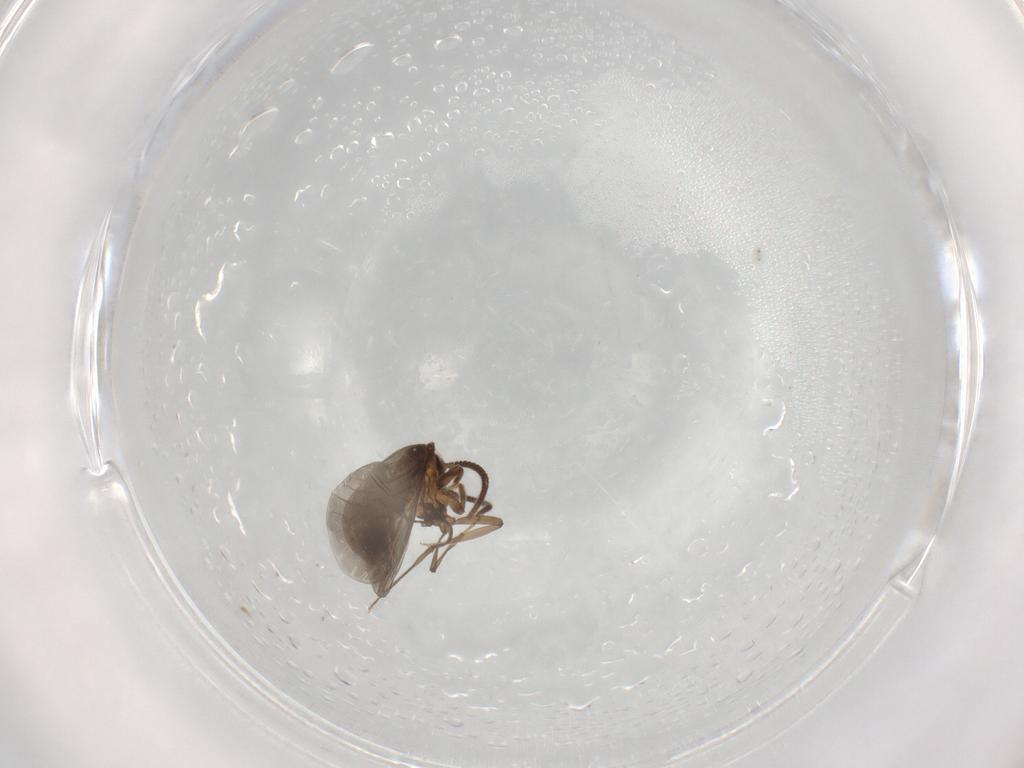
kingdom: Animalia
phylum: Arthropoda
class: Insecta
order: Neuroptera
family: Coniopterygidae
